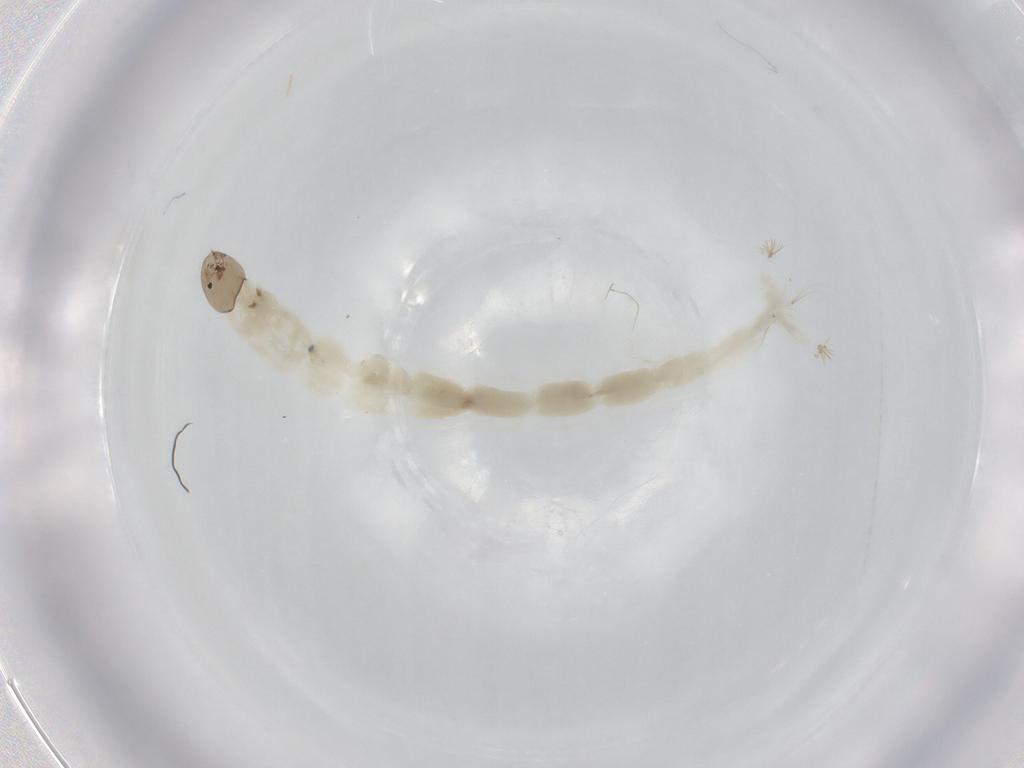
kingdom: Animalia
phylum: Arthropoda
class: Insecta
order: Diptera
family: Chironomidae
